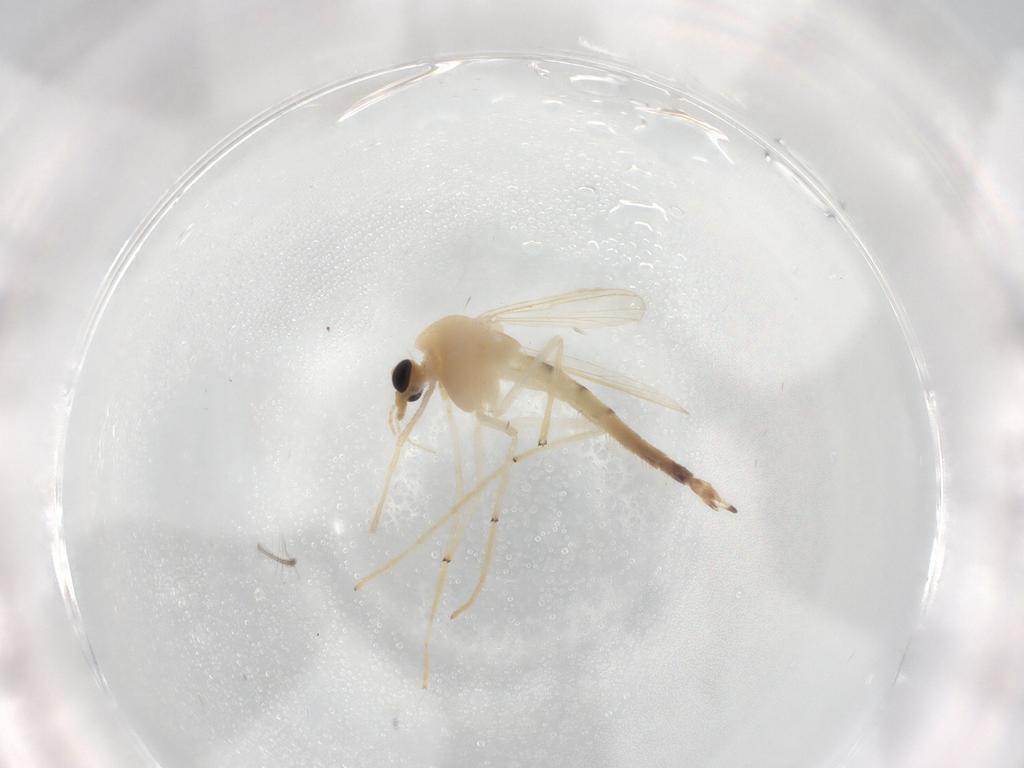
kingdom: Animalia
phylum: Arthropoda
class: Insecta
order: Diptera
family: Chironomidae
